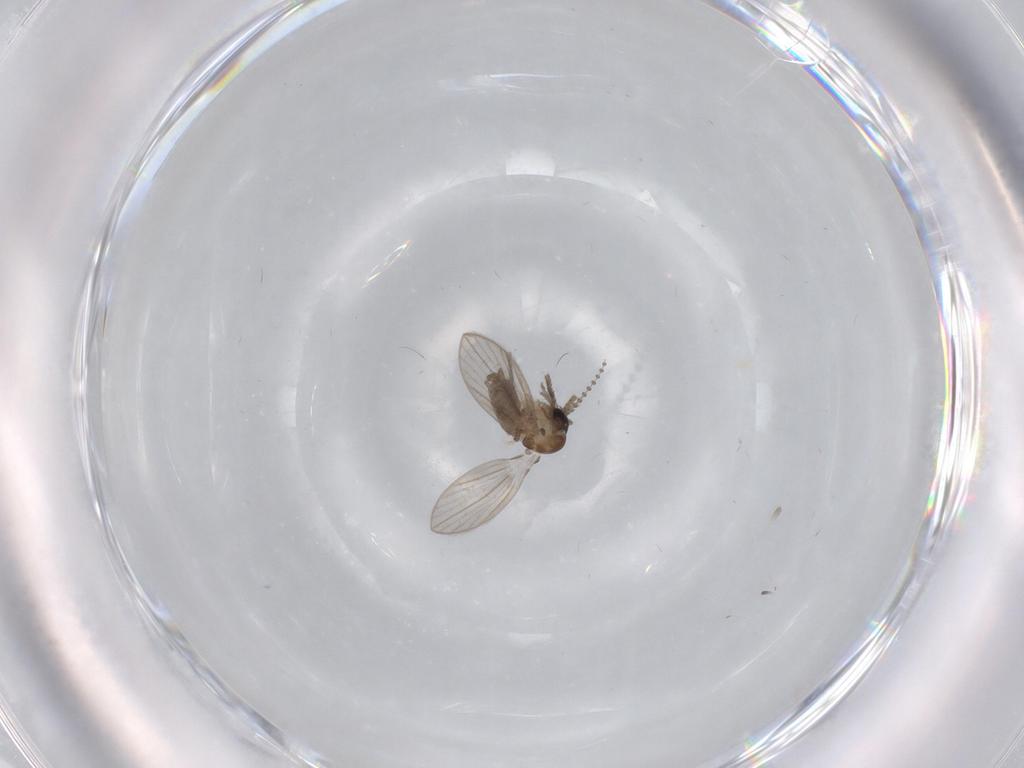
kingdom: Animalia
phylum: Arthropoda
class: Insecta
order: Diptera
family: Psychodidae
